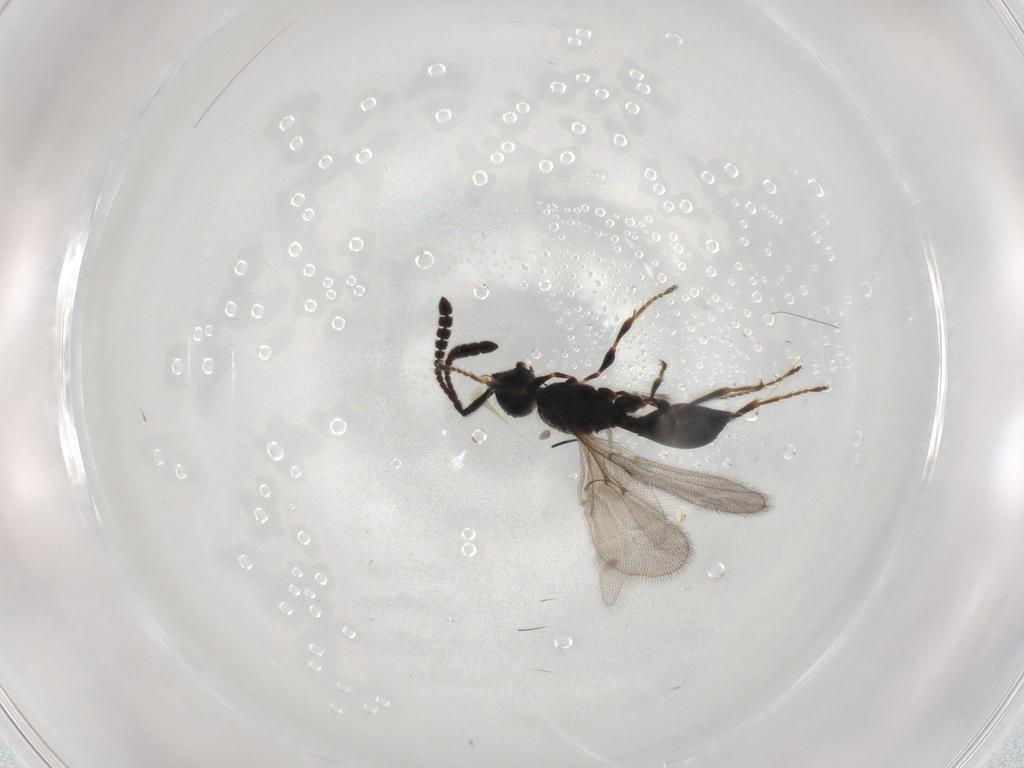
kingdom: Animalia
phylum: Arthropoda
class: Insecta
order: Hymenoptera
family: Diapriidae
